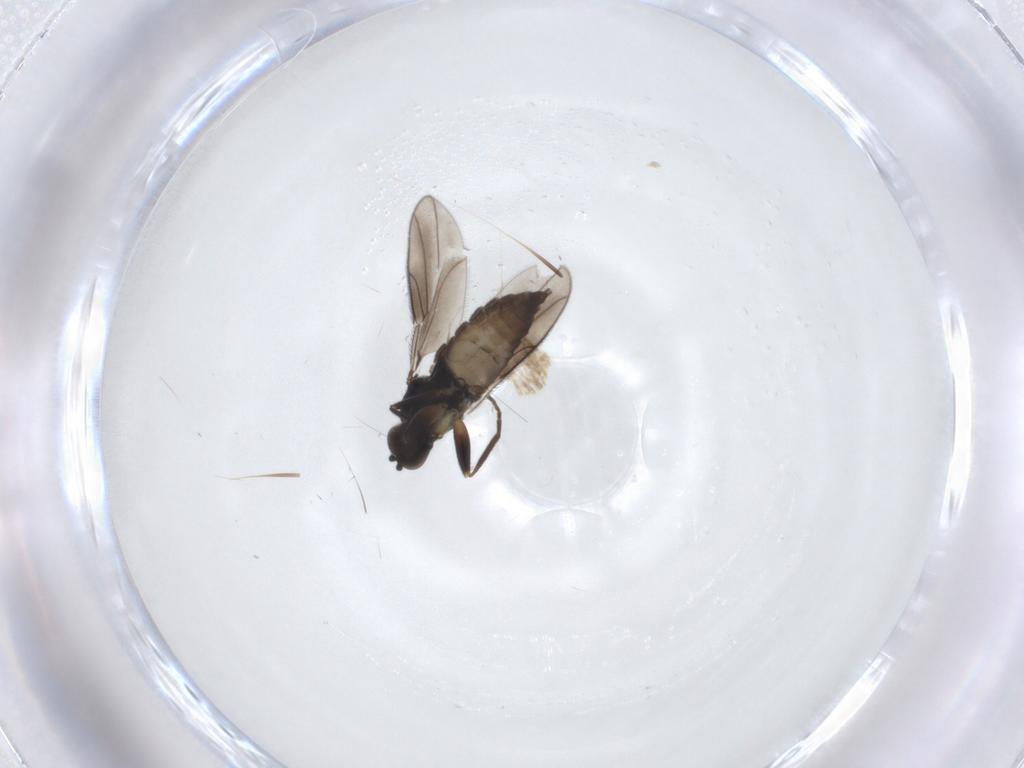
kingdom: Animalia
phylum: Arthropoda
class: Insecta
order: Diptera
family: Hybotidae
